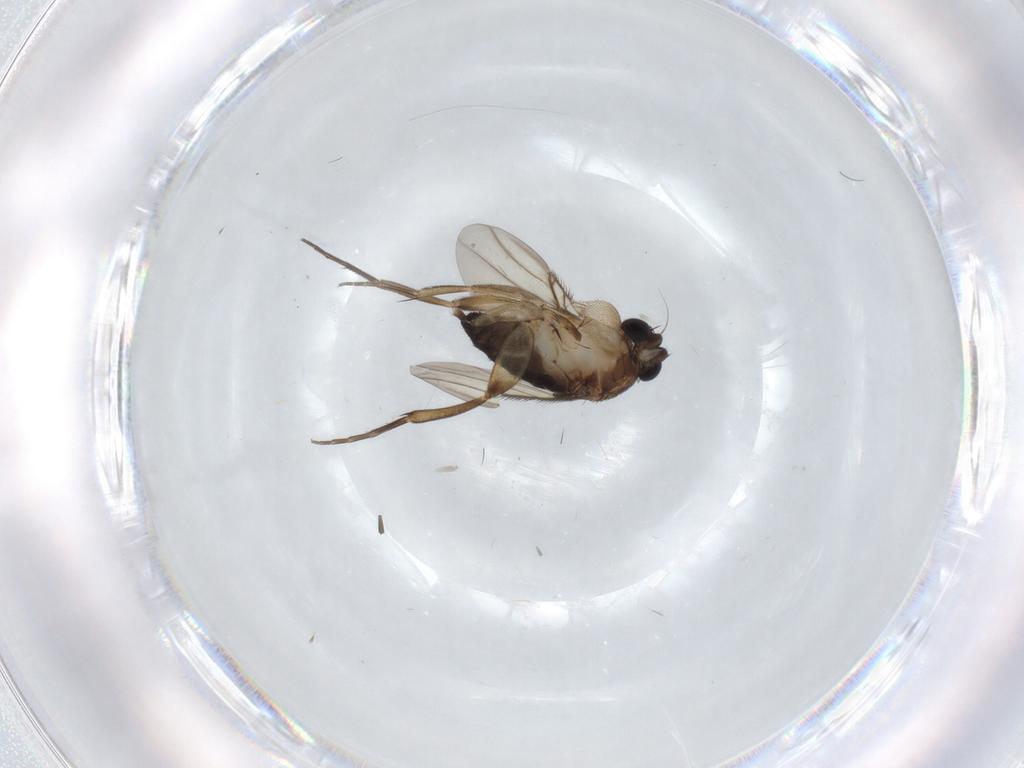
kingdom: Animalia
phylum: Arthropoda
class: Insecta
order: Diptera
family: Phoridae
